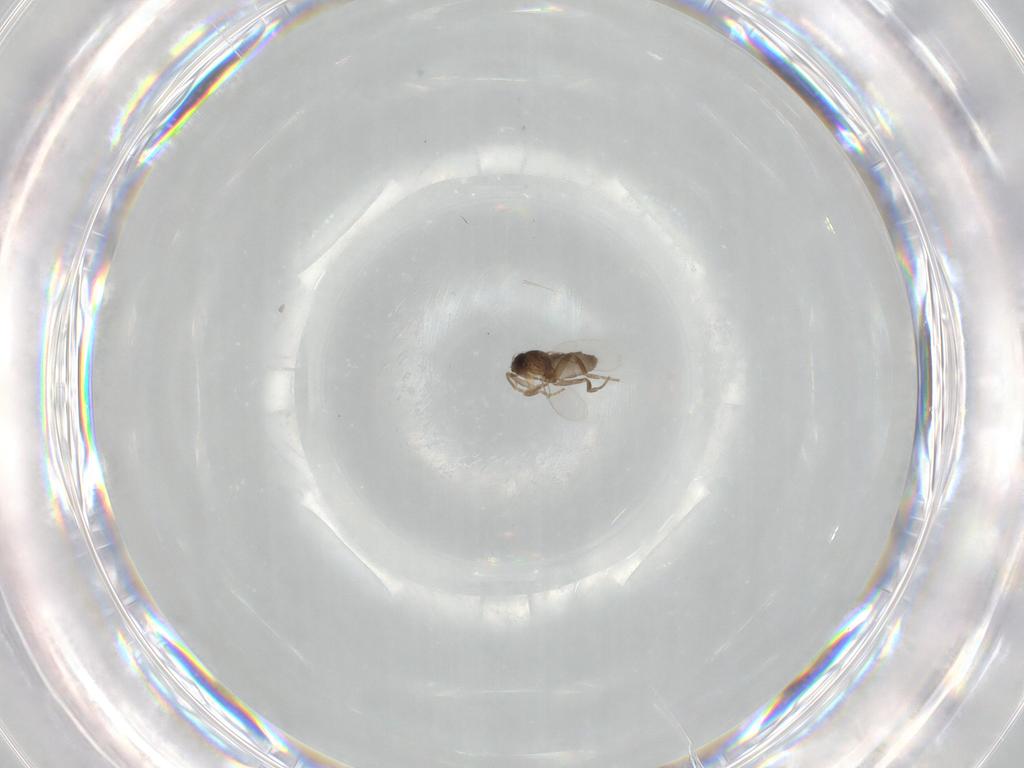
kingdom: Animalia
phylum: Arthropoda
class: Insecta
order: Diptera
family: Phoridae
